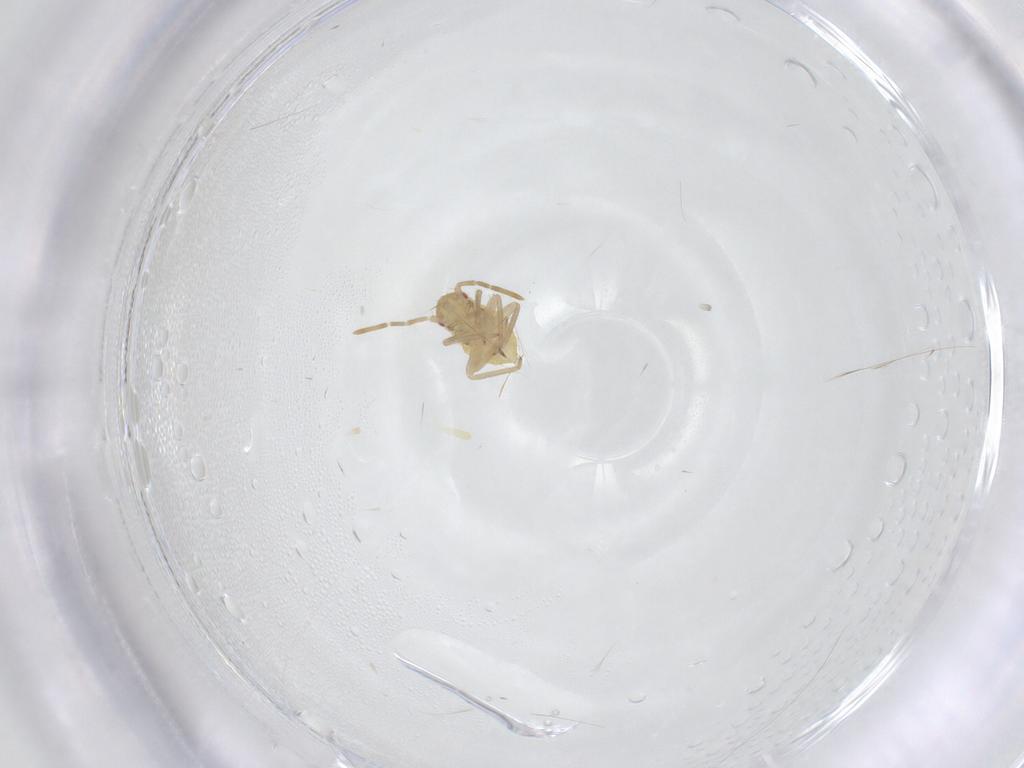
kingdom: Animalia
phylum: Arthropoda
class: Insecta
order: Hemiptera
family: Miridae
